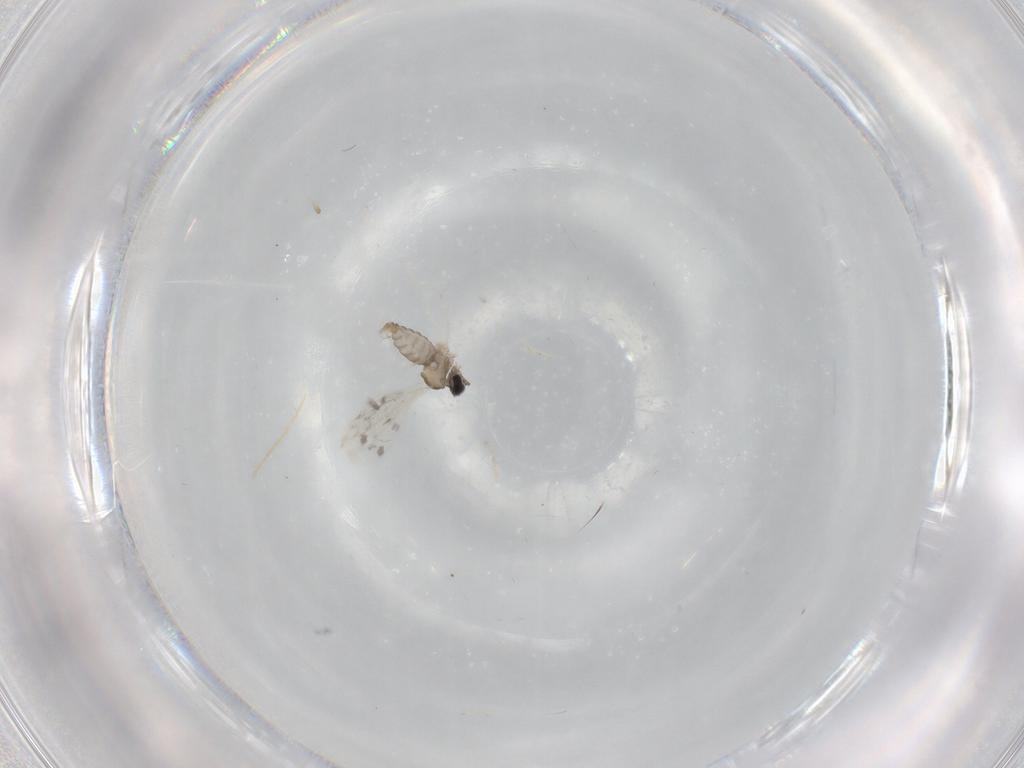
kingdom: Animalia
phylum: Arthropoda
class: Insecta
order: Diptera
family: Cecidomyiidae
